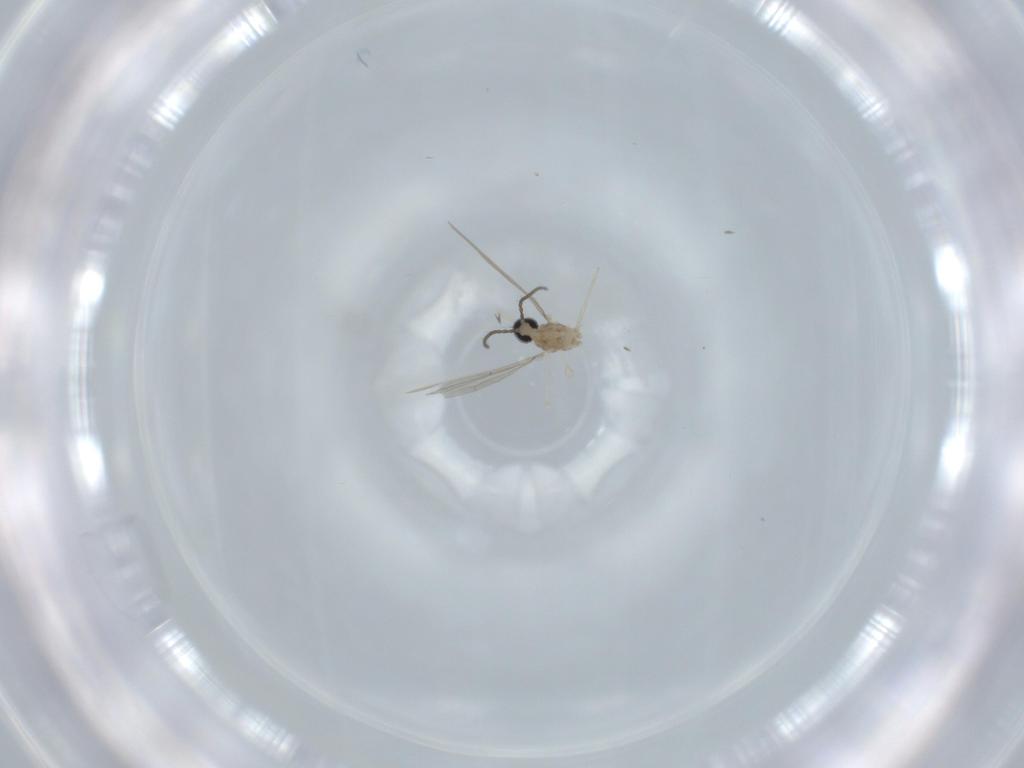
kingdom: Animalia
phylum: Arthropoda
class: Insecta
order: Diptera
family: Cecidomyiidae
